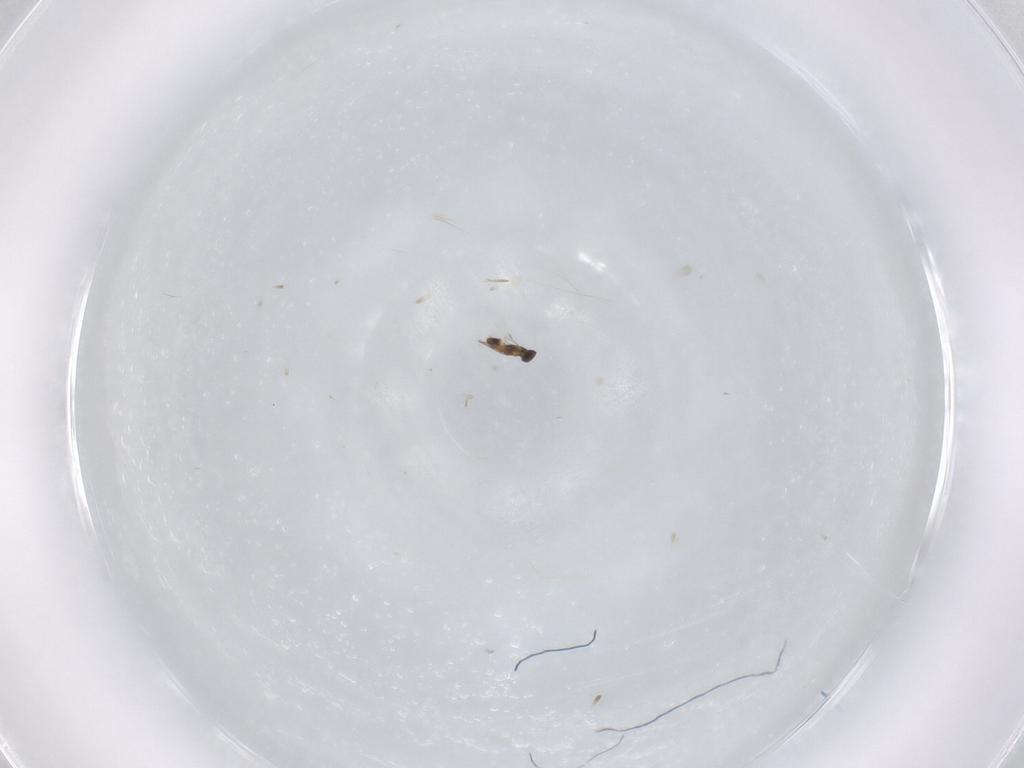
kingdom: Animalia
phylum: Arthropoda
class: Insecta
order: Hymenoptera
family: Mymaridae
